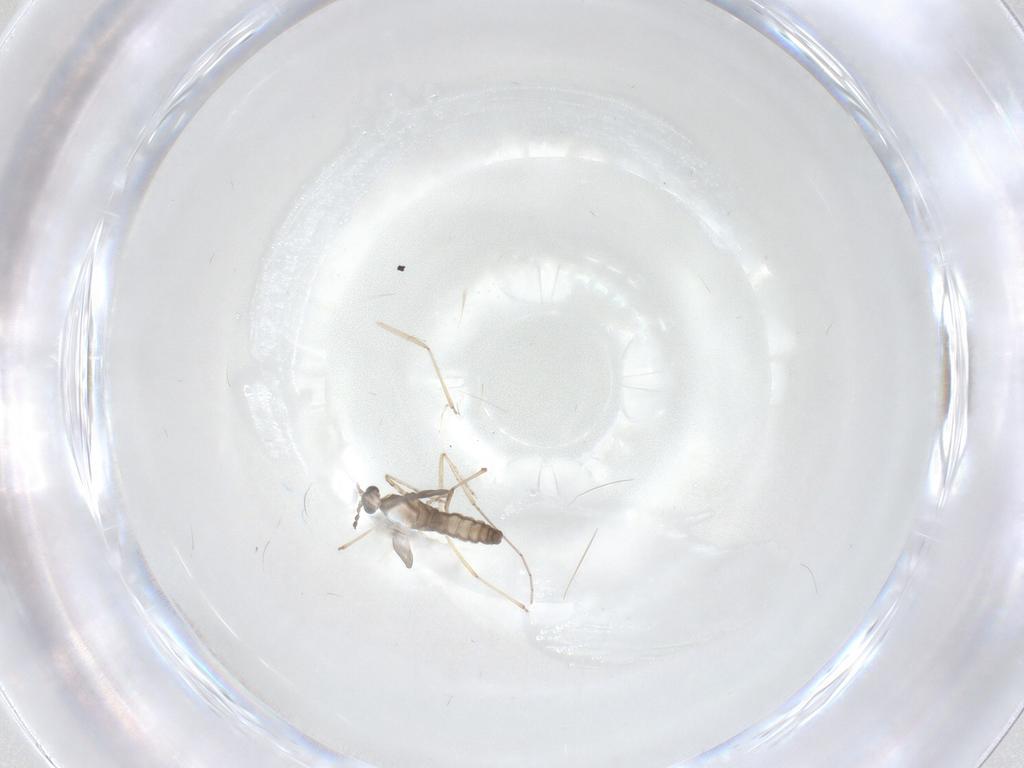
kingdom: Animalia
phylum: Arthropoda
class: Insecta
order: Diptera
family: Cecidomyiidae
